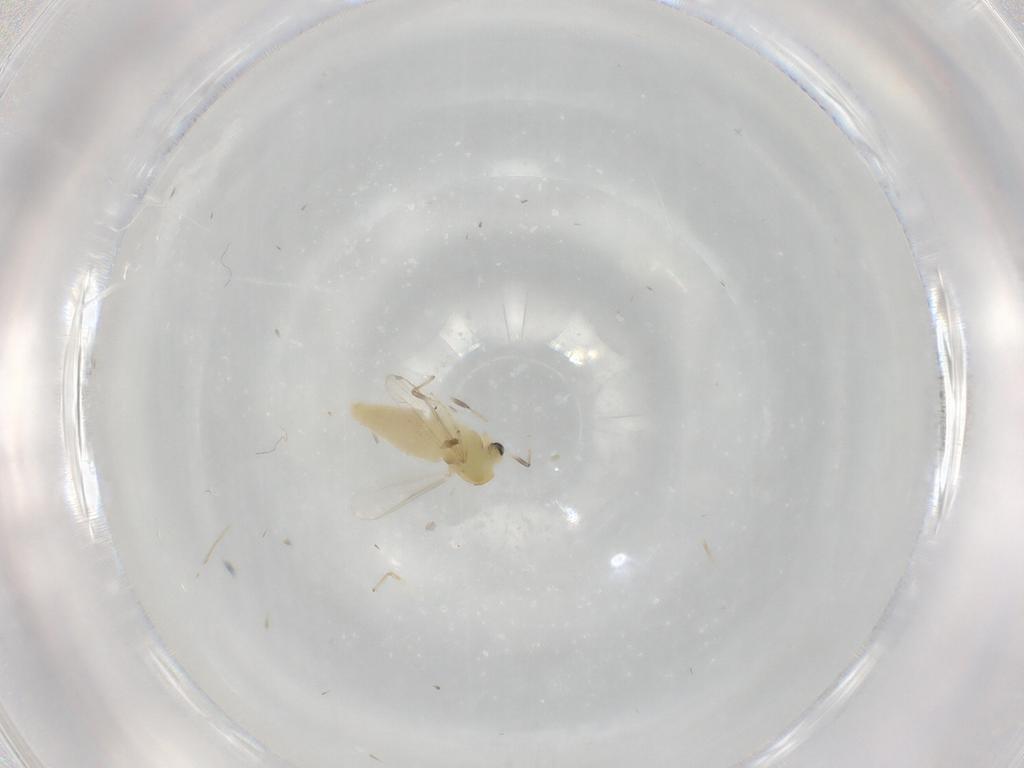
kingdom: Animalia
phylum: Arthropoda
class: Insecta
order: Diptera
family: Chironomidae
